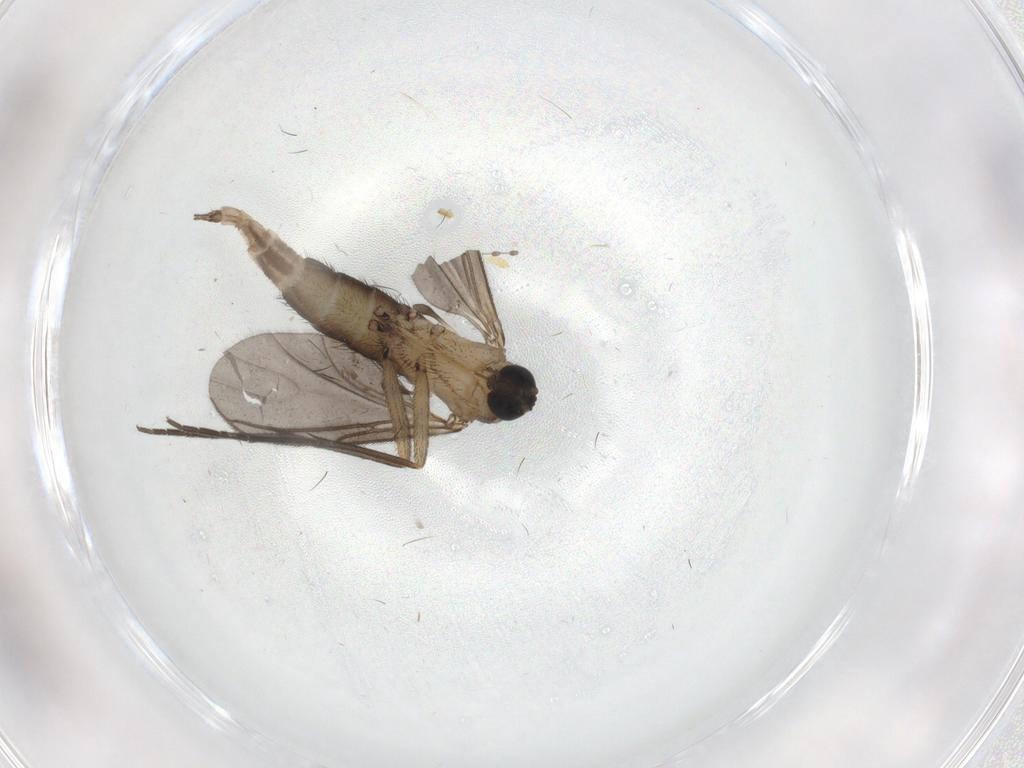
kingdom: Animalia
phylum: Arthropoda
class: Insecta
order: Diptera
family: Sciaridae
